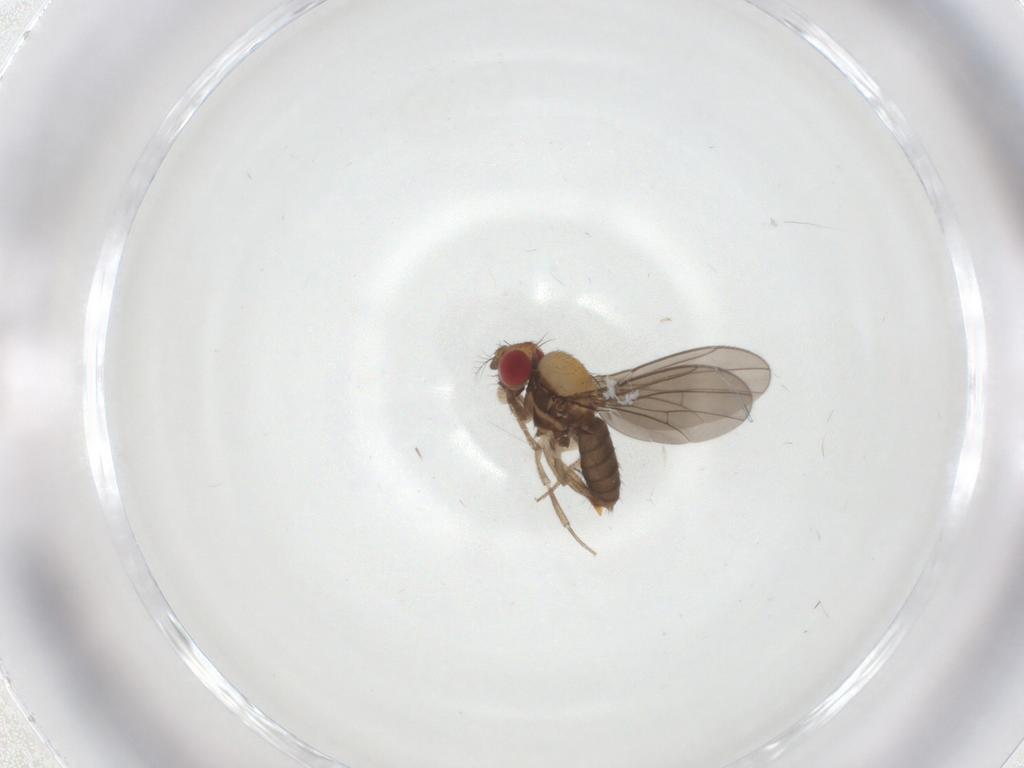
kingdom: Animalia
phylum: Arthropoda
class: Insecta
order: Diptera
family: Drosophilidae
